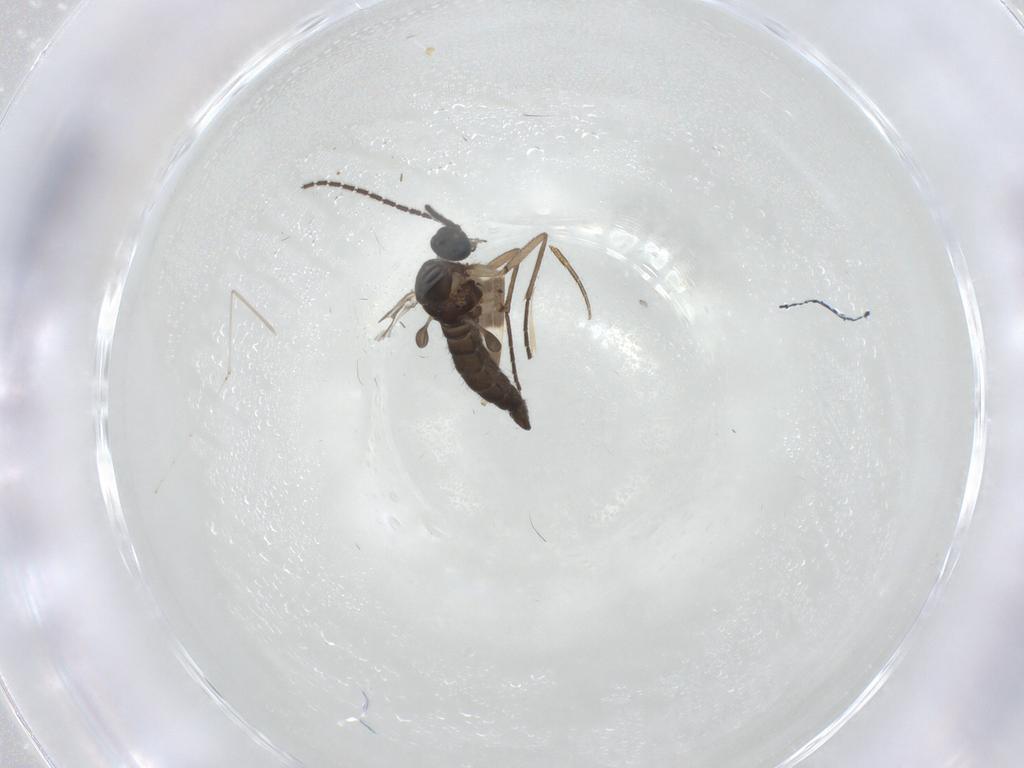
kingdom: Animalia
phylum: Arthropoda
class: Insecta
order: Diptera
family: Sciaridae
